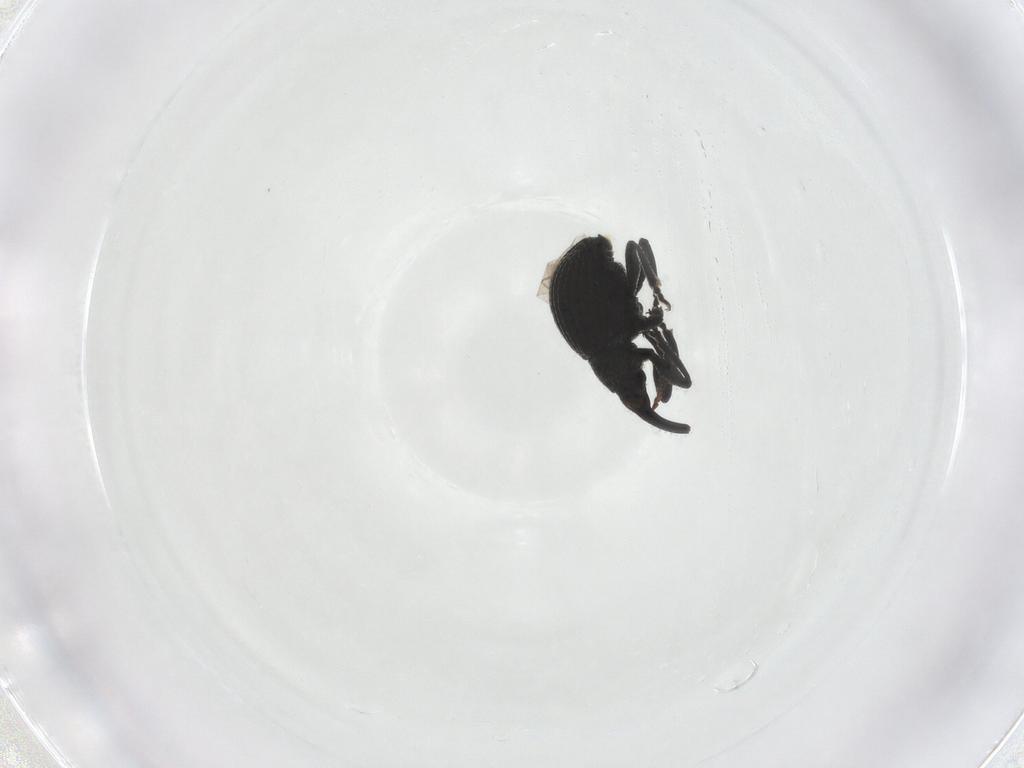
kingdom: Animalia
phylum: Arthropoda
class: Insecta
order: Coleoptera
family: Brentidae
